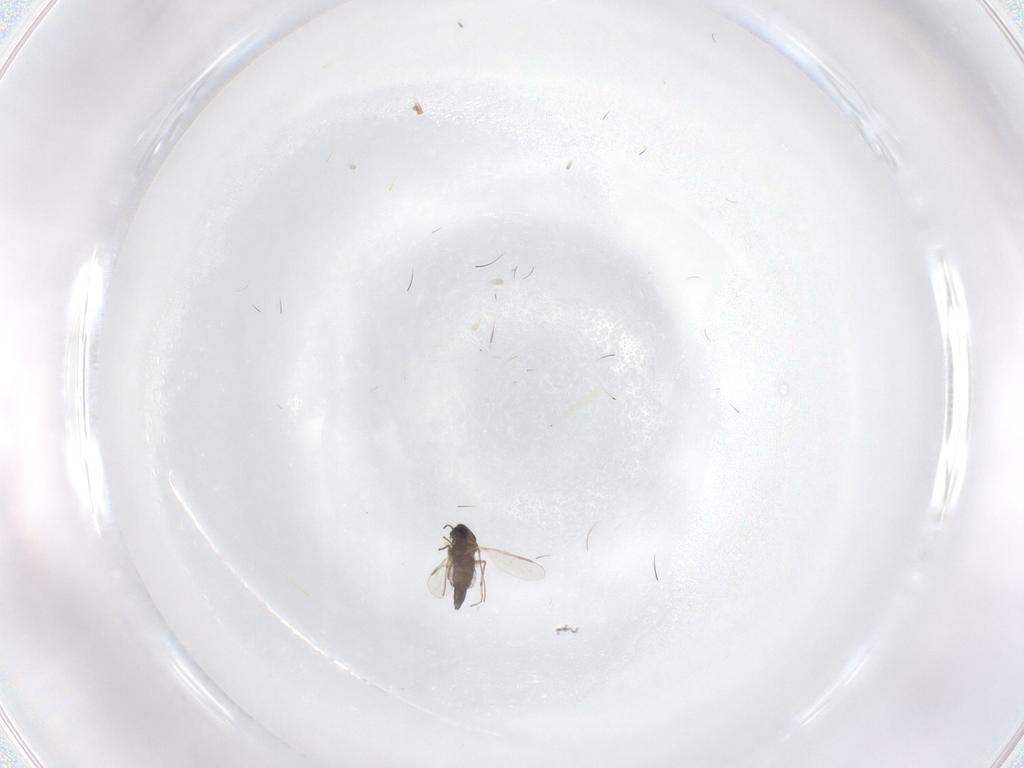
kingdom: Animalia
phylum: Arthropoda
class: Insecta
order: Diptera
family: Chironomidae
